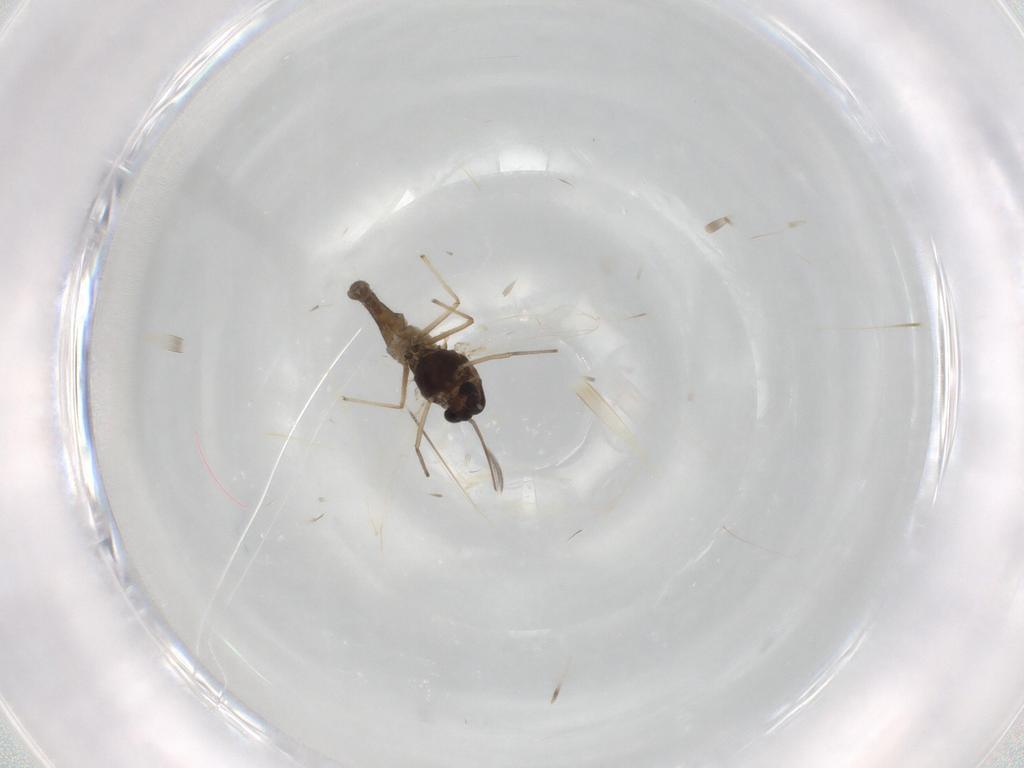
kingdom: Animalia
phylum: Arthropoda
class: Insecta
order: Diptera
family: Chironomidae
